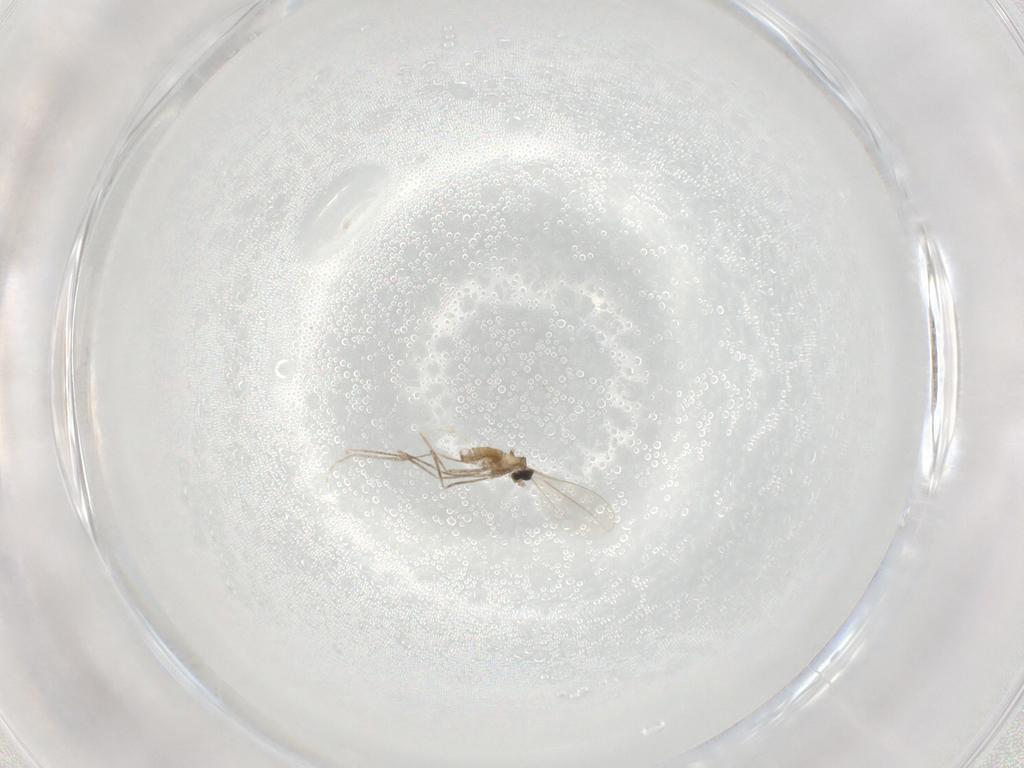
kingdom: Animalia
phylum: Arthropoda
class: Insecta
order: Diptera
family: Cecidomyiidae
